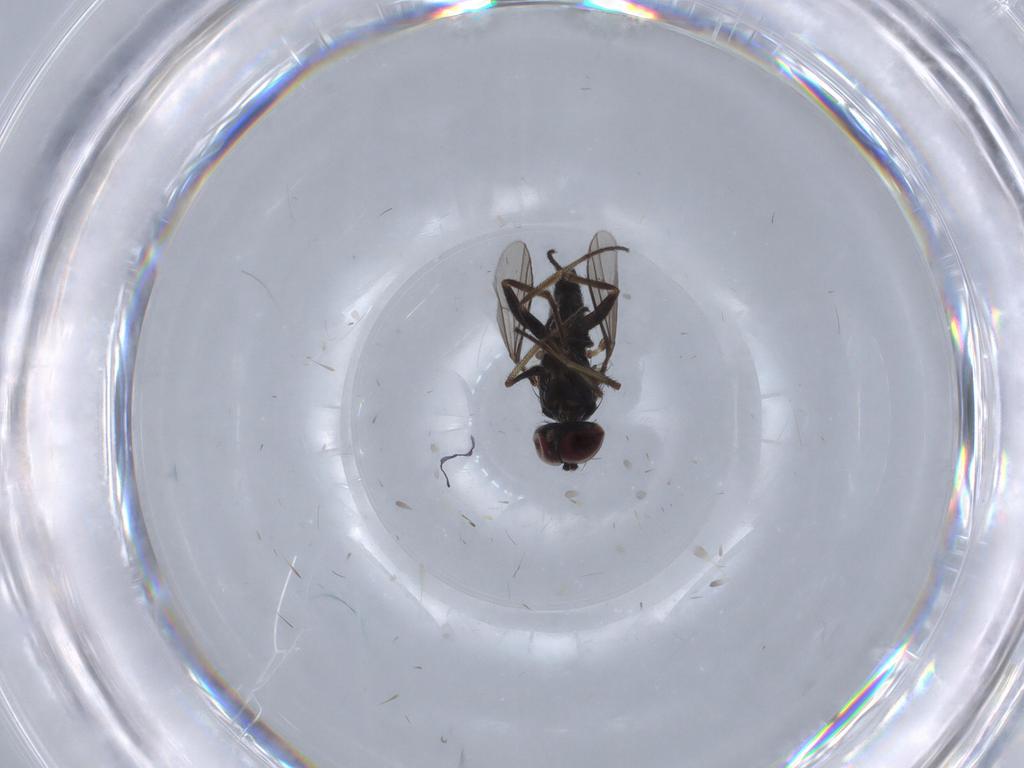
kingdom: Animalia
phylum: Arthropoda
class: Insecta
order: Diptera
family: Dolichopodidae
